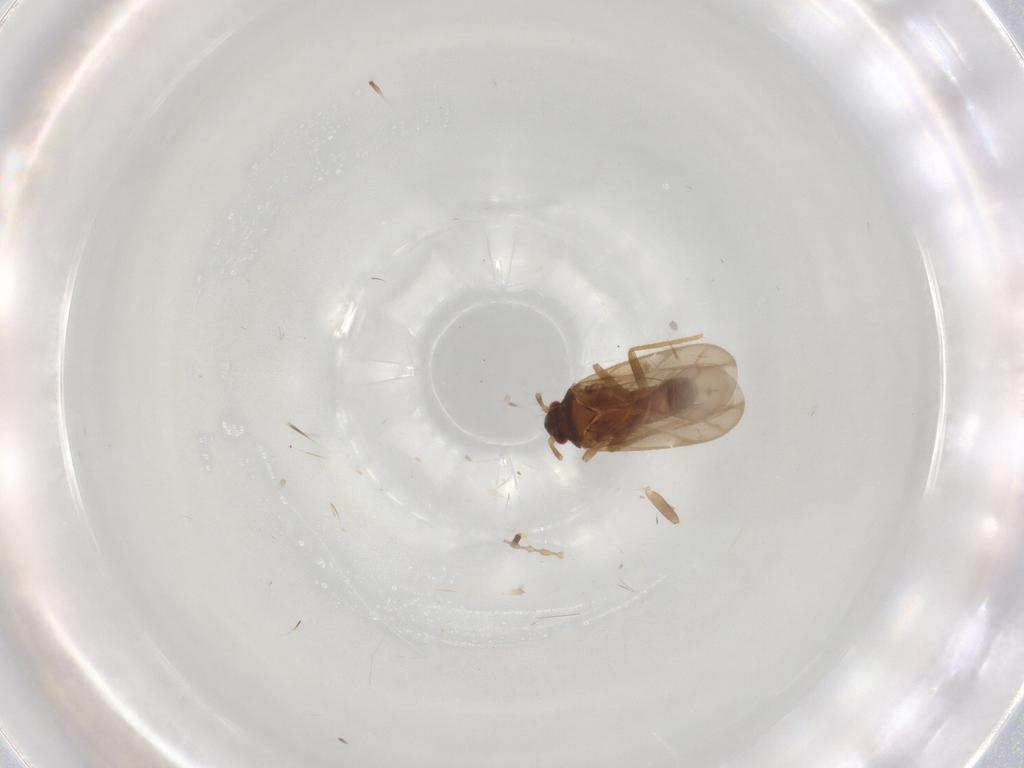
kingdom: Animalia
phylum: Arthropoda
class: Insecta
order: Hemiptera
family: Ceratocombidae
